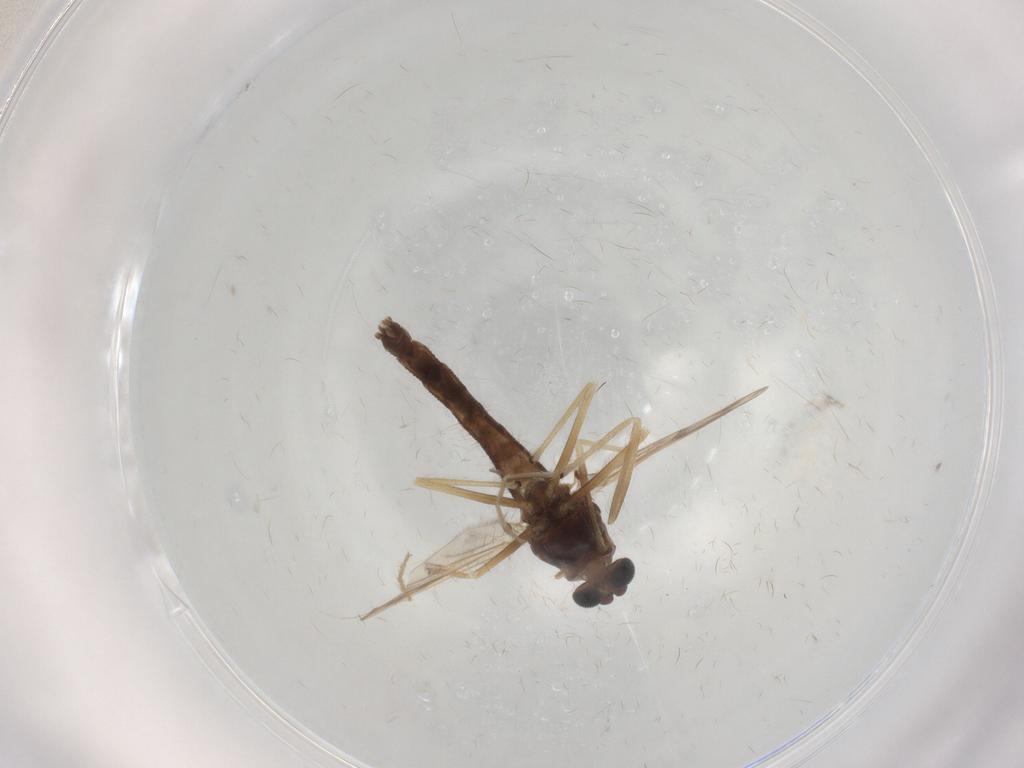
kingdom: Animalia
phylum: Arthropoda
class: Insecta
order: Diptera
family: Chironomidae
